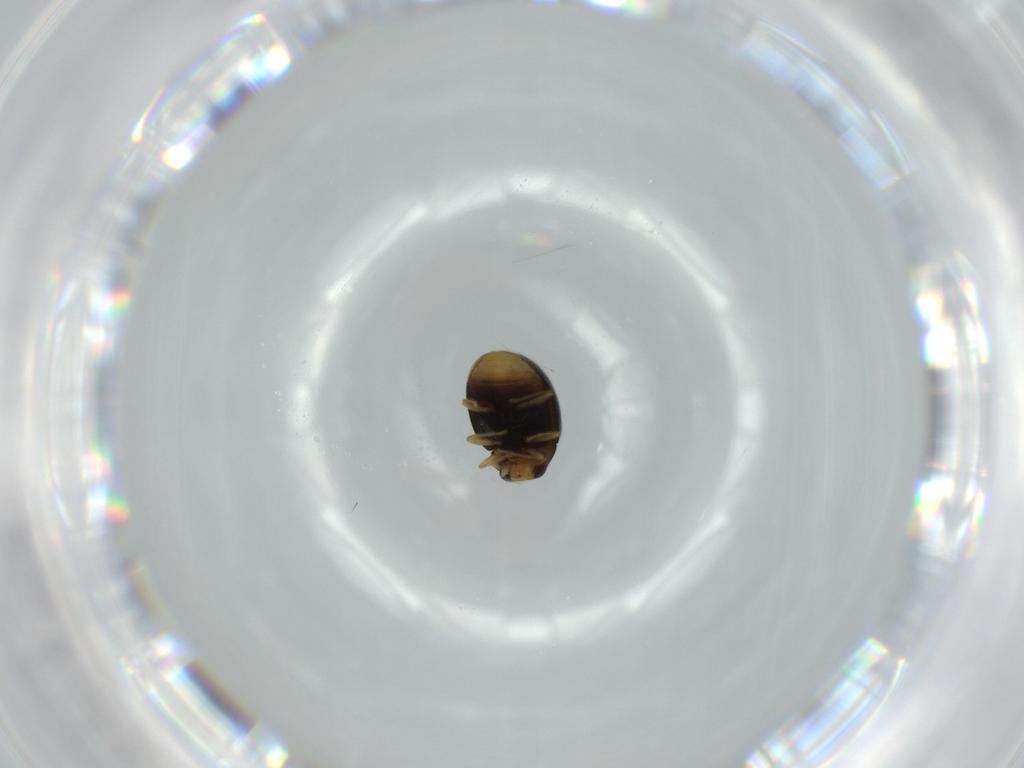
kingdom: Animalia
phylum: Arthropoda
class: Insecta
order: Coleoptera
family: Coccinellidae
